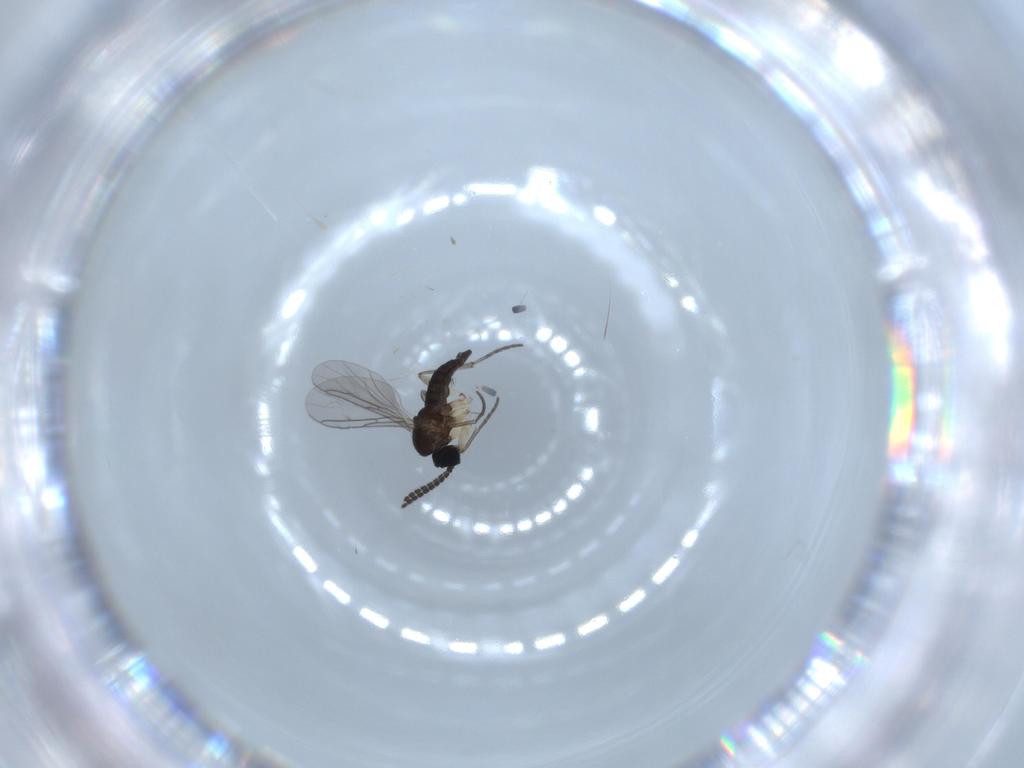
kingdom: Animalia
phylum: Arthropoda
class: Insecta
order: Diptera
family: Sciaridae
